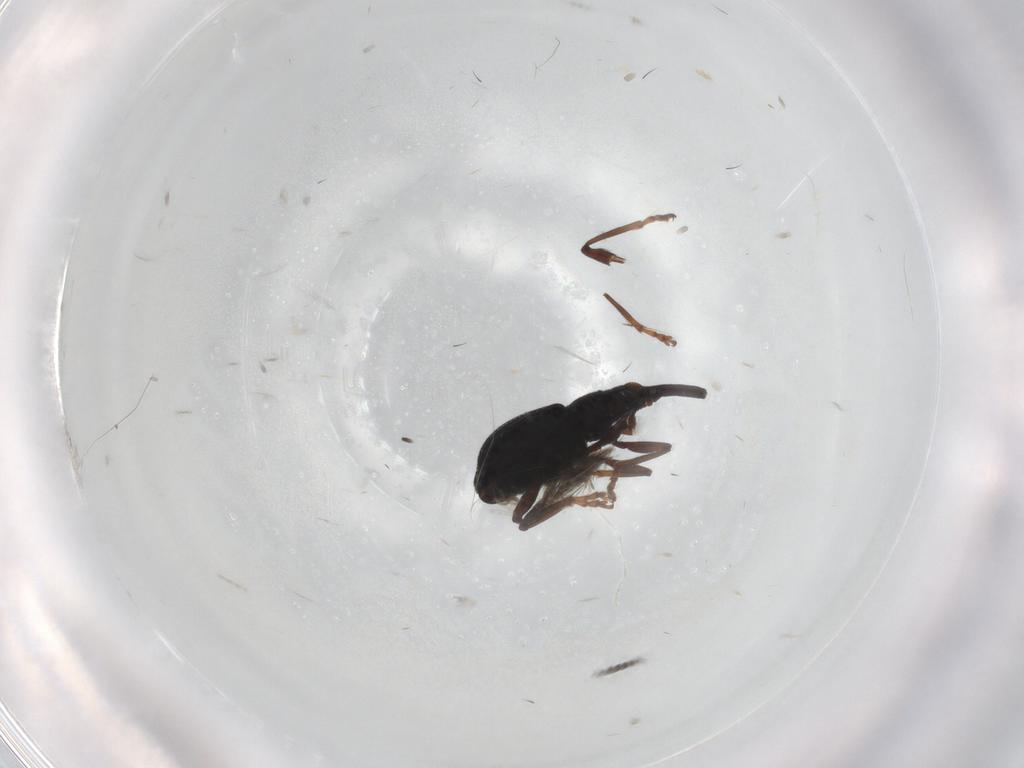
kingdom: Animalia
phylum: Arthropoda
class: Insecta
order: Coleoptera
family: Brentidae
